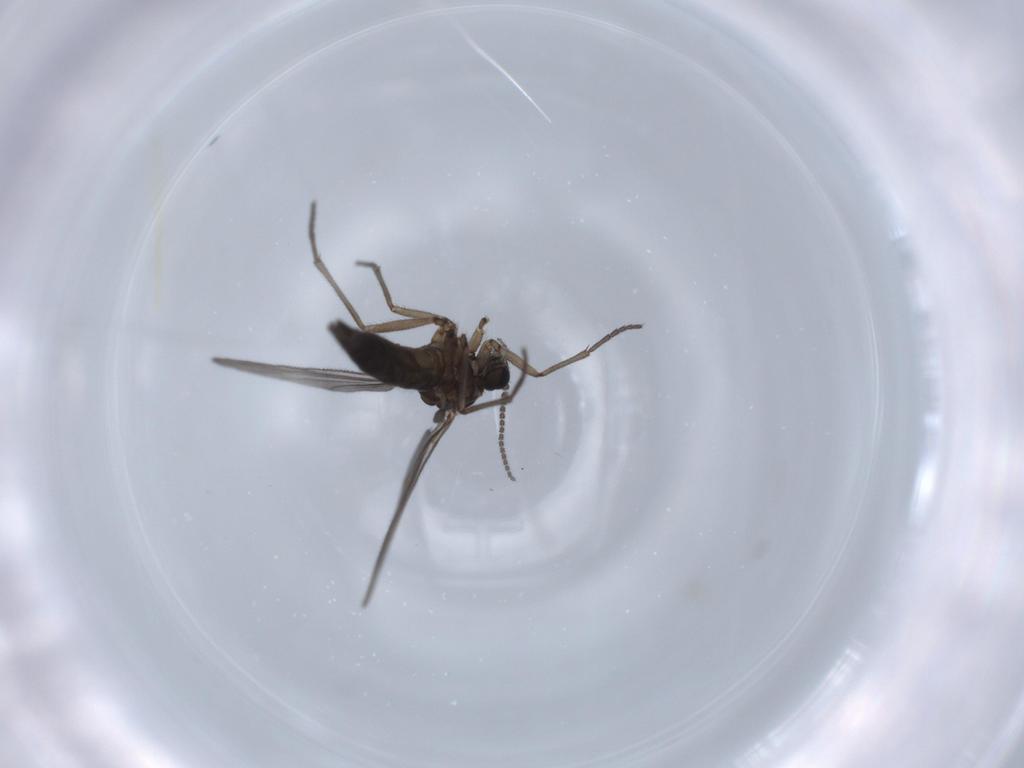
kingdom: Animalia
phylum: Arthropoda
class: Insecta
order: Diptera
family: Sciaridae
